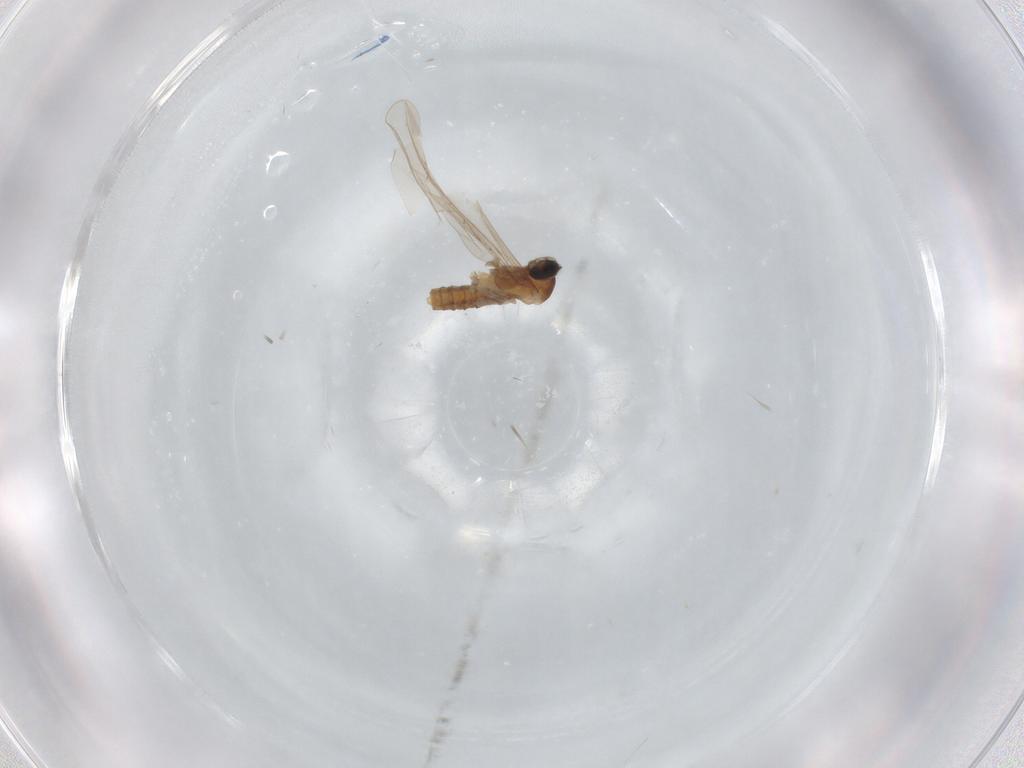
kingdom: Animalia
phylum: Arthropoda
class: Insecta
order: Diptera
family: Cecidomyiidae
